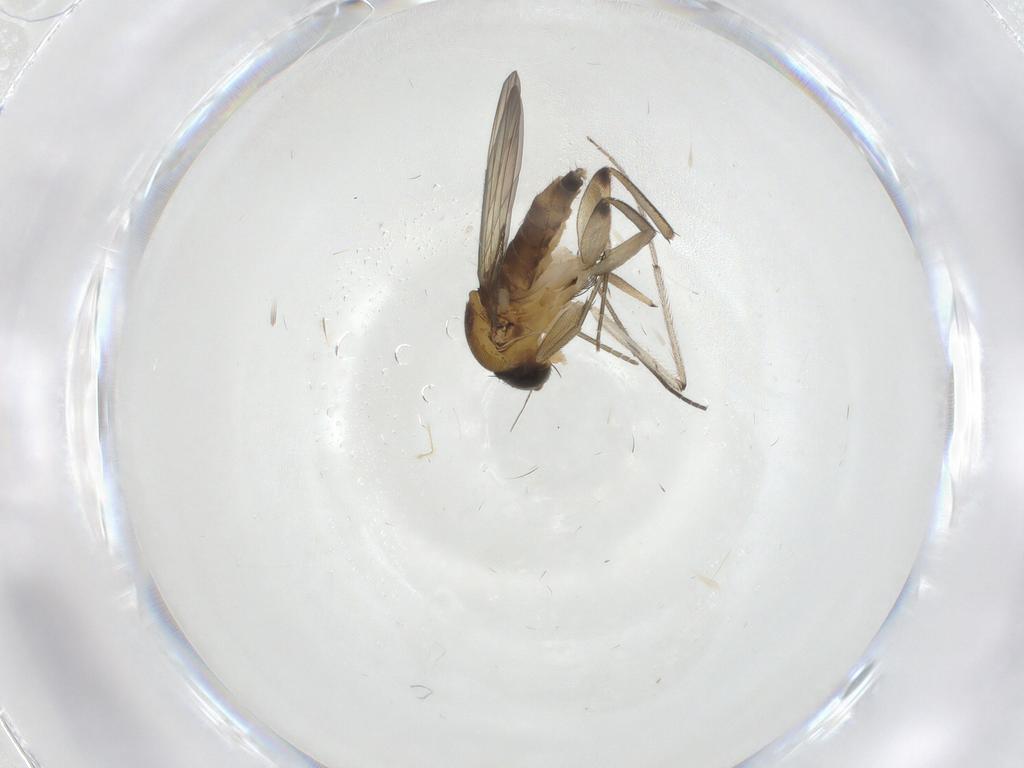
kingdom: Animalia
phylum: Arthropoda
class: Insecta
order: Diptera
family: Phoridae
